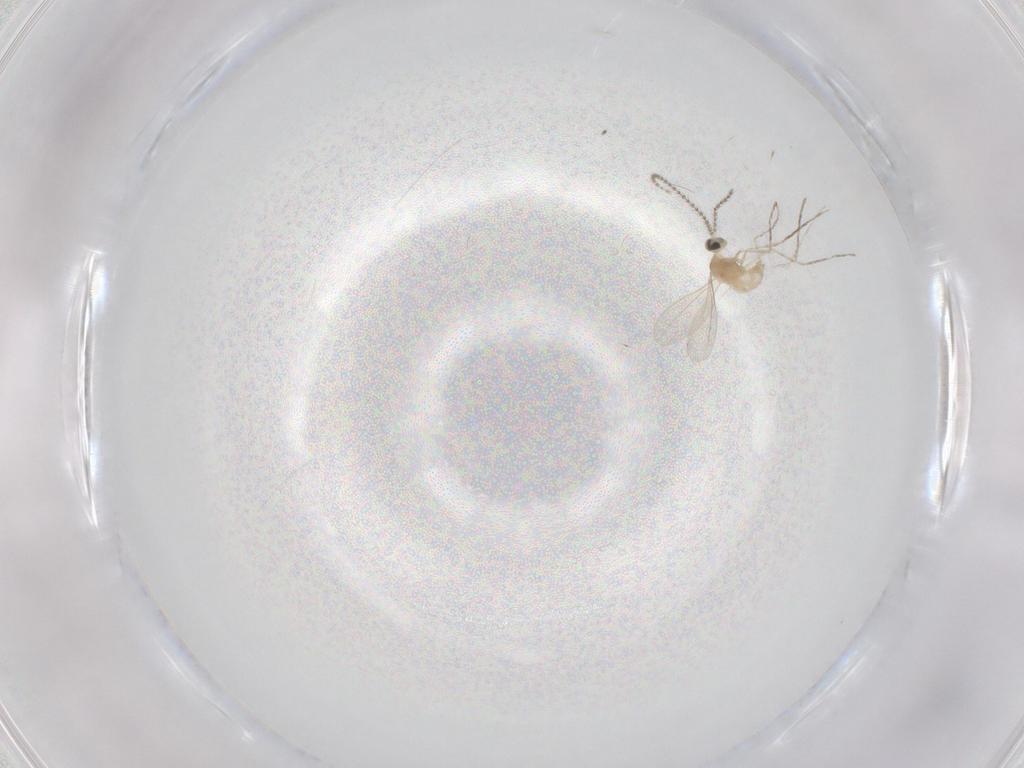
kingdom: Animalia
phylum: Arthropoda
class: Insecta
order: Diptera
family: Cecidomyiidae
